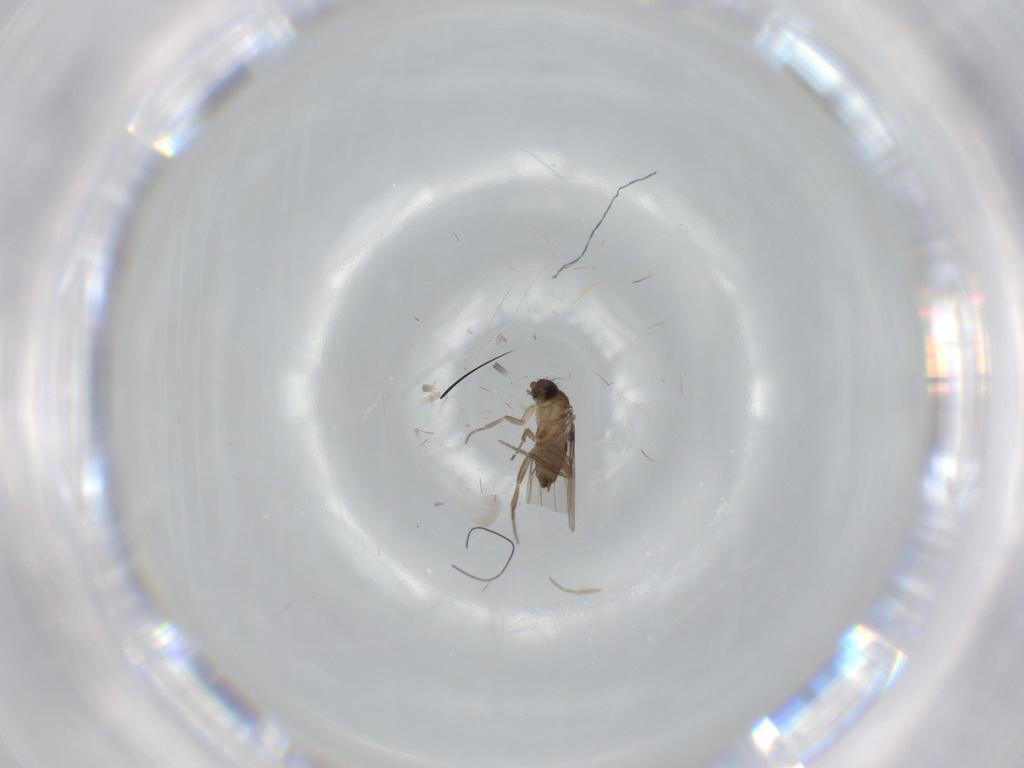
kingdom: Animalia
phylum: Arthropoda
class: Insecta
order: Diptera
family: Phoridae
